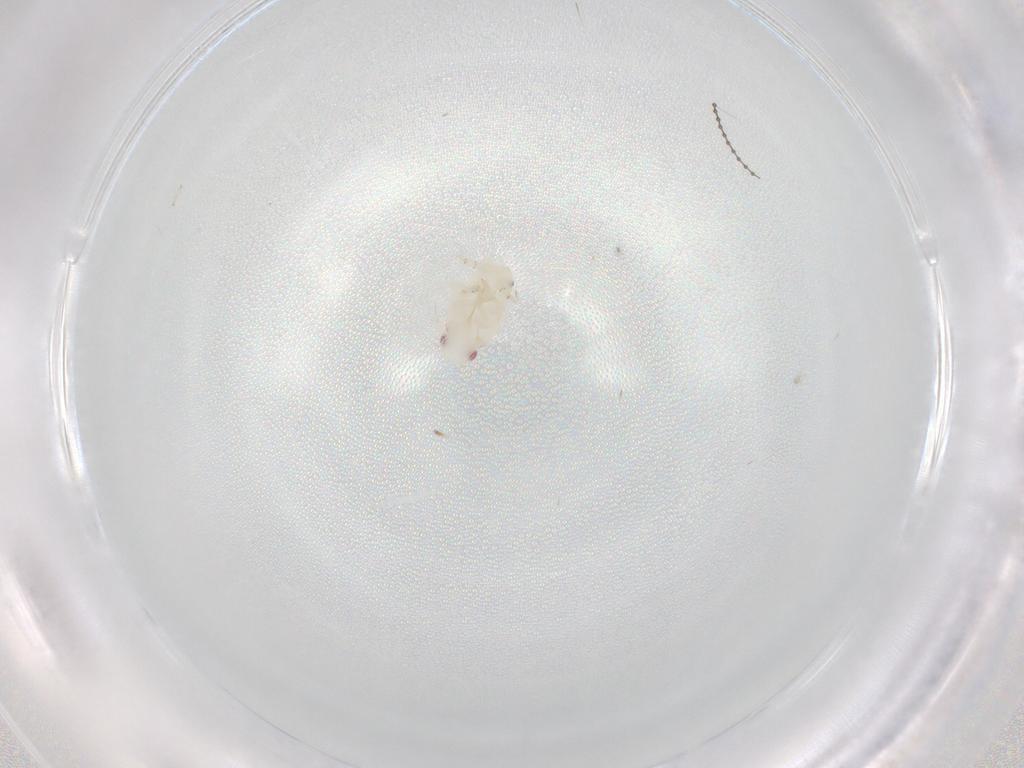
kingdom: Animalia
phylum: Arthropoda
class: Insecta
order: Hemiptera
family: Flatidae
